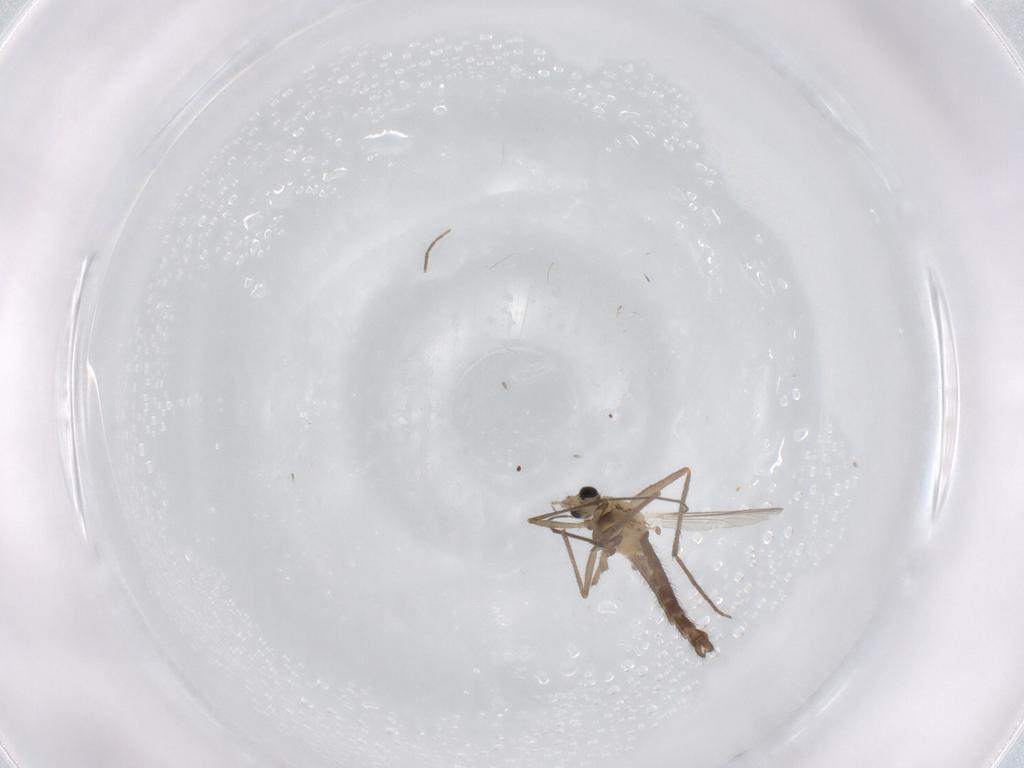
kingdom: Animalia
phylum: Arthropoda
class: Insecta
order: Diptera
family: Chironomidae
